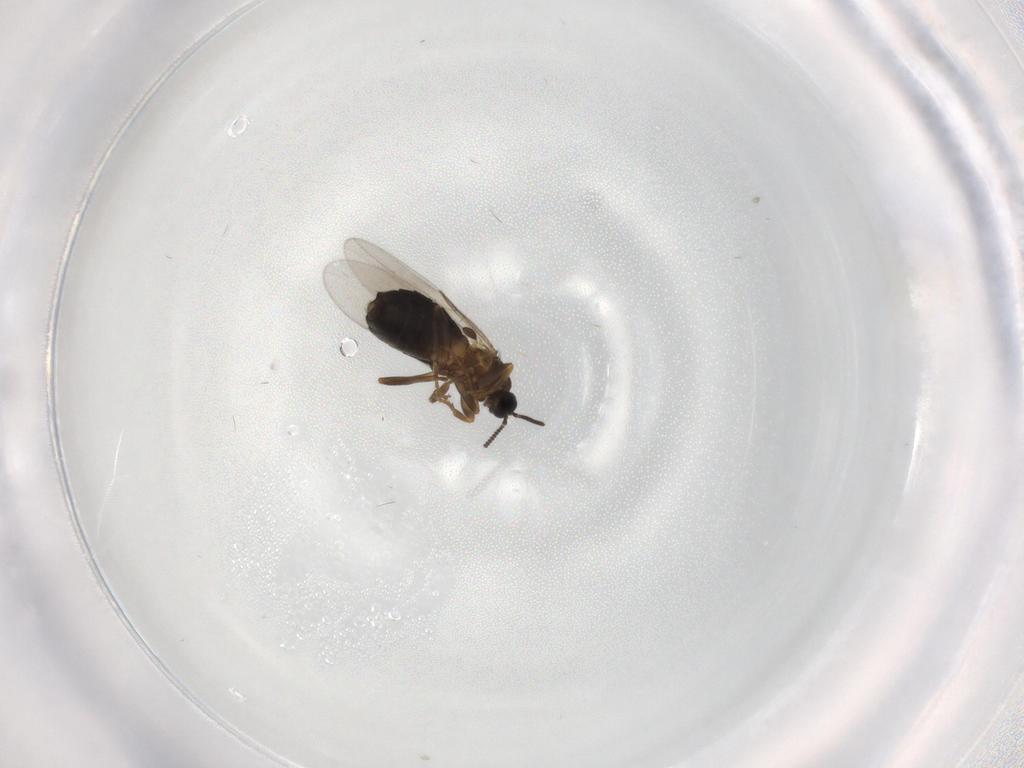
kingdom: Animalia
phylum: Arthropoda
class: Insecta
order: Diptera
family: Scatopsidae
